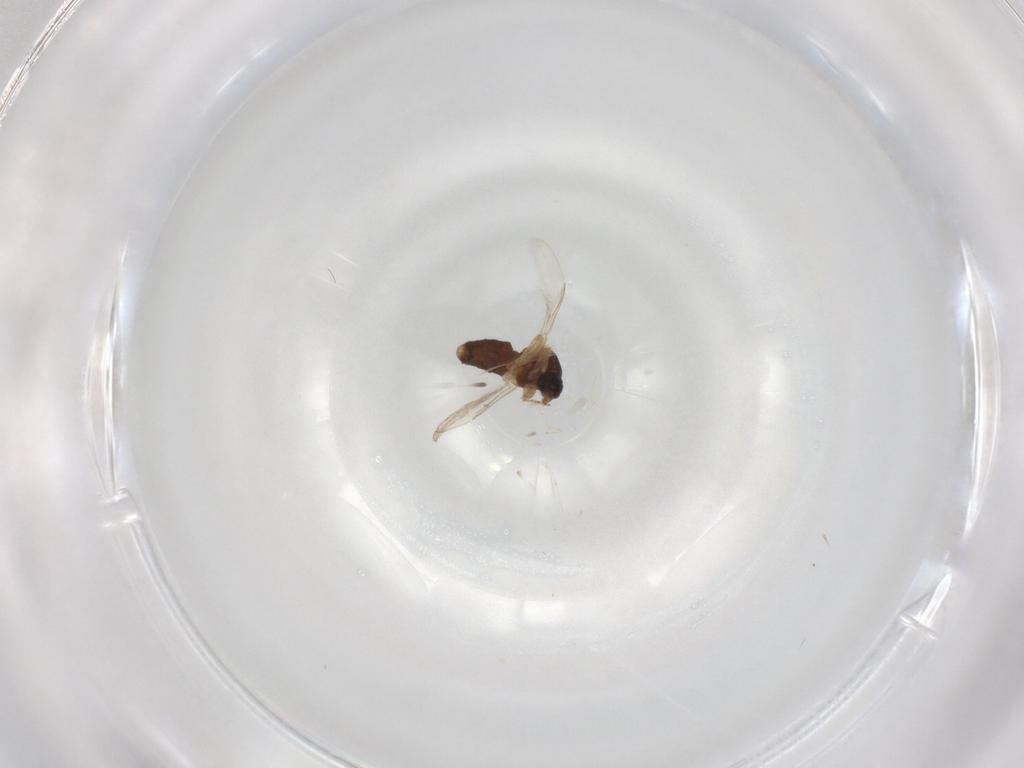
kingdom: Animalia
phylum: Arthropoda
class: Insecta
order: Diptera
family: Ceratopogonidae
